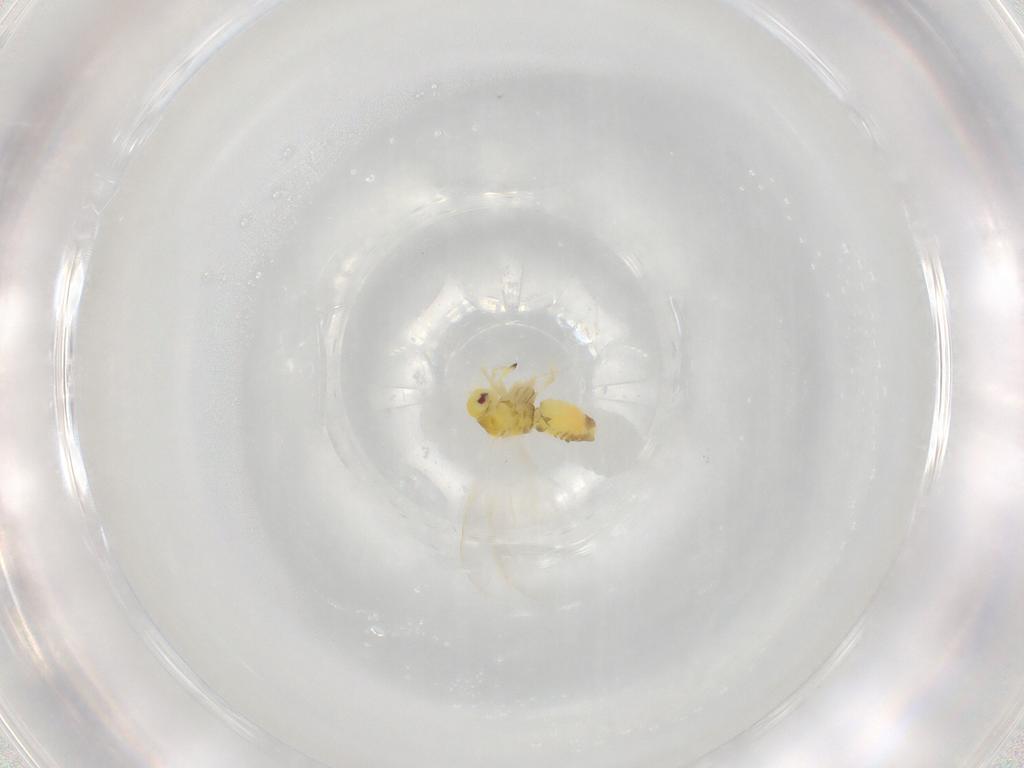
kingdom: Animalia
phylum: Arthropoda
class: Insecta
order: Hemiptera
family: Aleyrodidae
